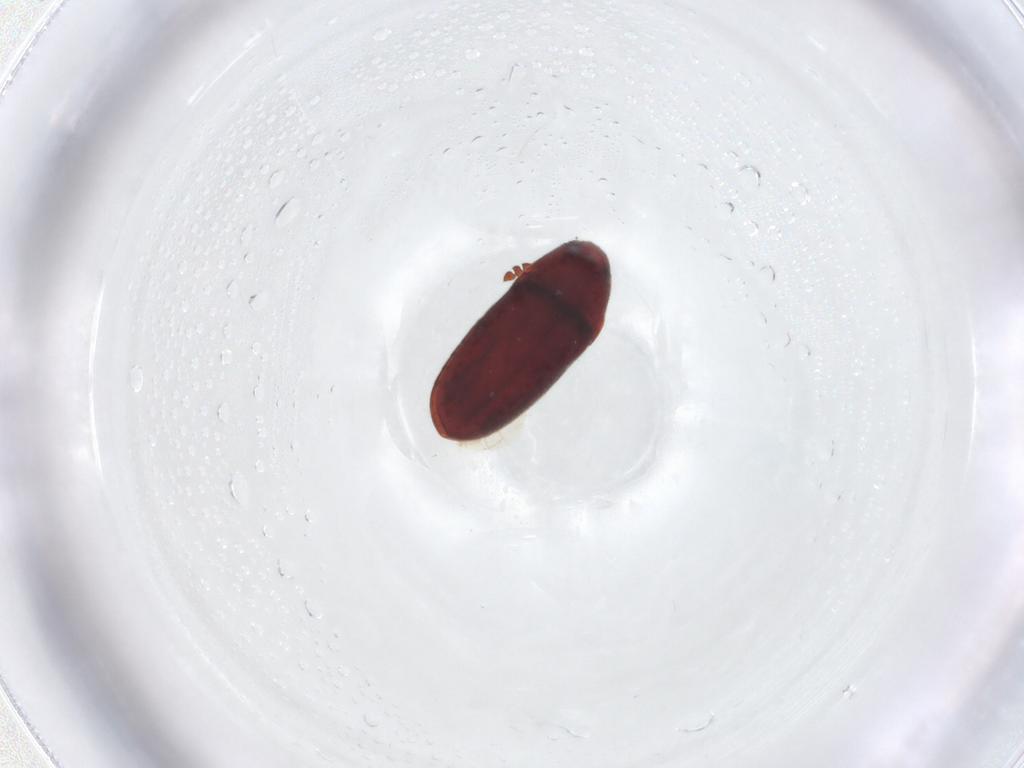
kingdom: Animalia
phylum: Arthropoda
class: Insecta
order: Coleoptera
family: Throscidae
